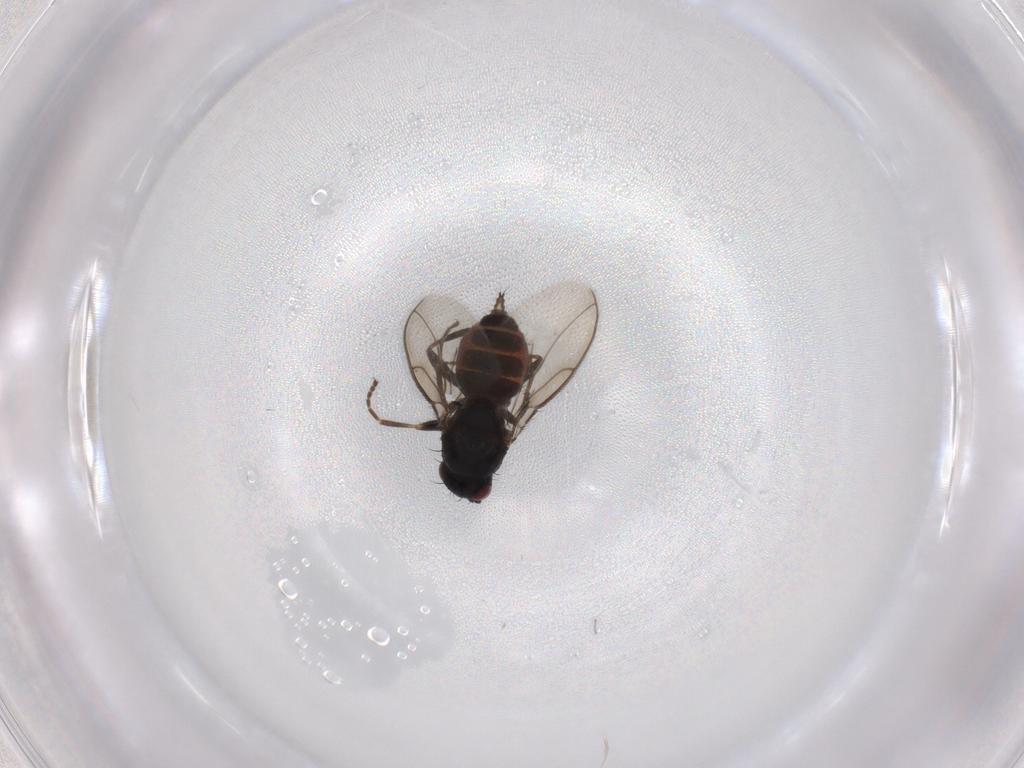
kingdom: Animalia
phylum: Arthropoda
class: Insecta
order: Diptera
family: Sphaeroceridae
